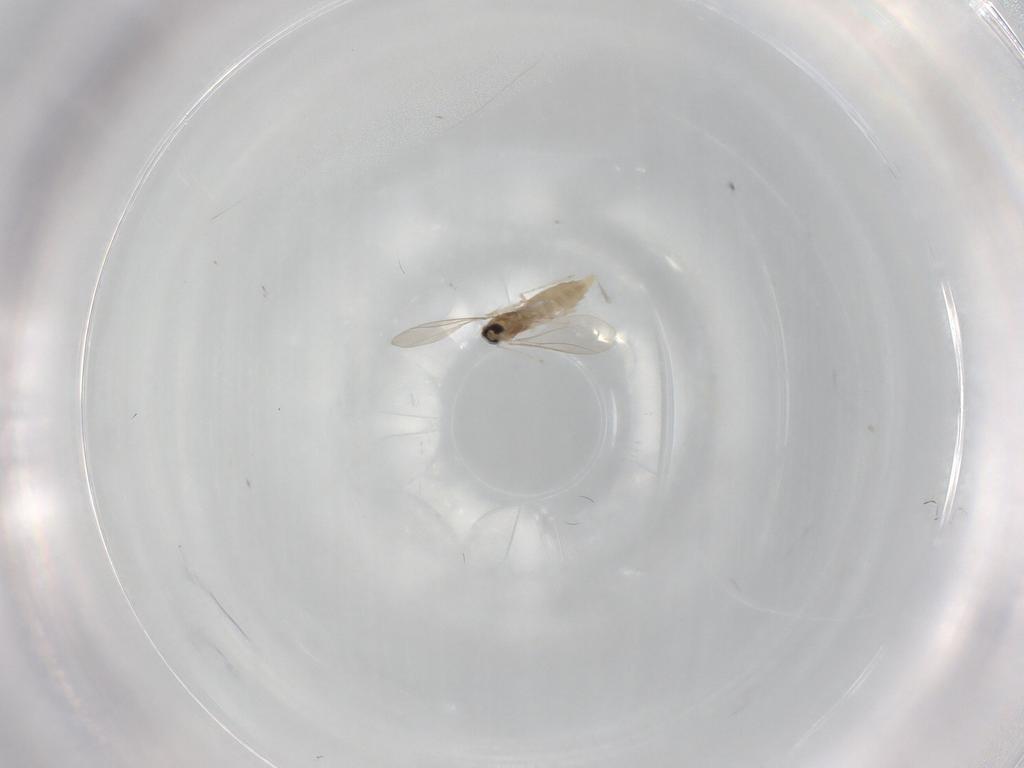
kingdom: Animalia
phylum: Arthropoda
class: Insecta
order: Diptera
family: Cecidomyiidae
